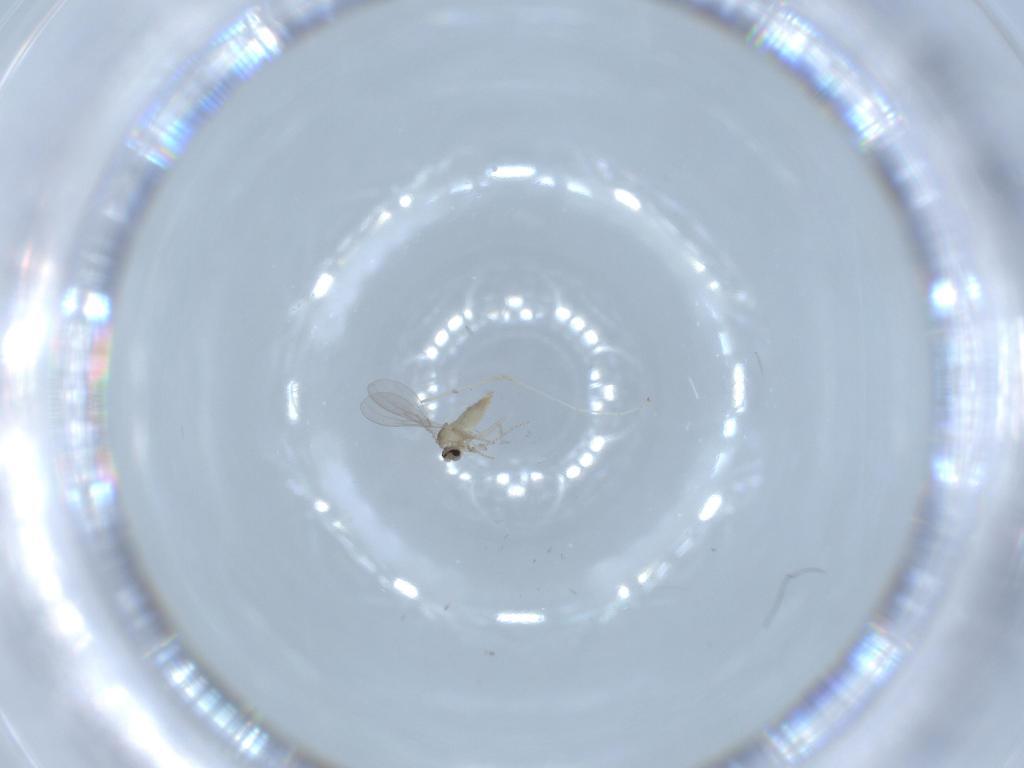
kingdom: Animalia
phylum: Arthropoda
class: Insecta
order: Diptera
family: Cecidomyiidae
